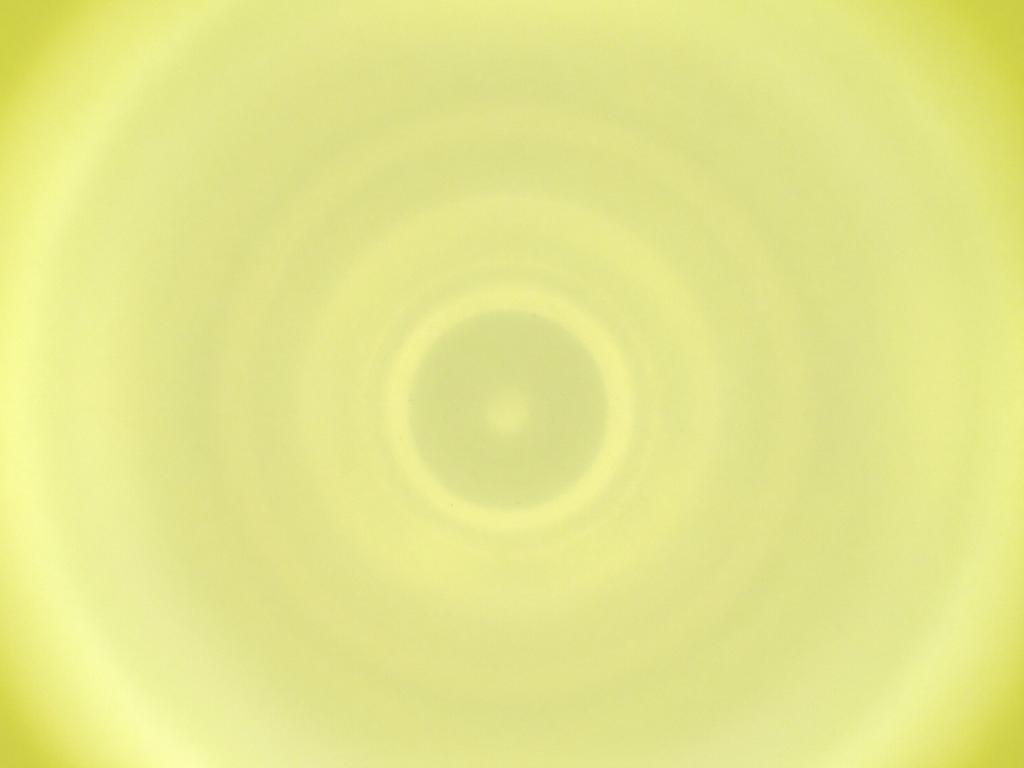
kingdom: Animalia
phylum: Arthropoda
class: Insecta
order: Diptera
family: Cecidomyiidae
